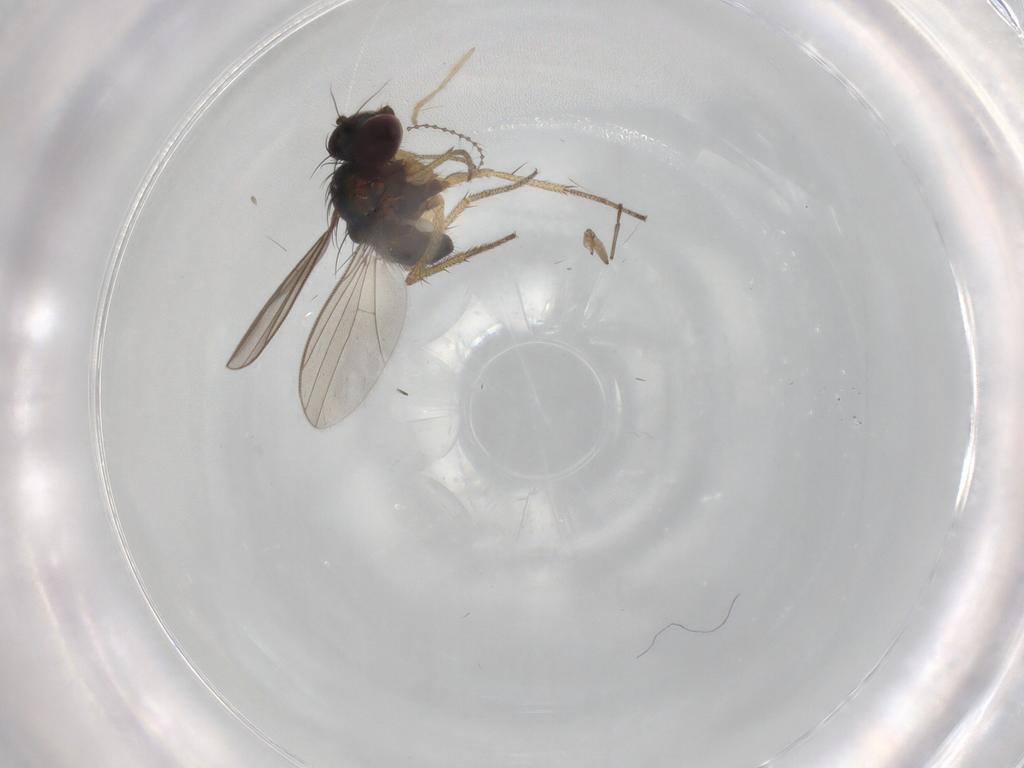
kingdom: Animalia
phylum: Arthropoda
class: Insecta
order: Diptera
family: Chironomidae
